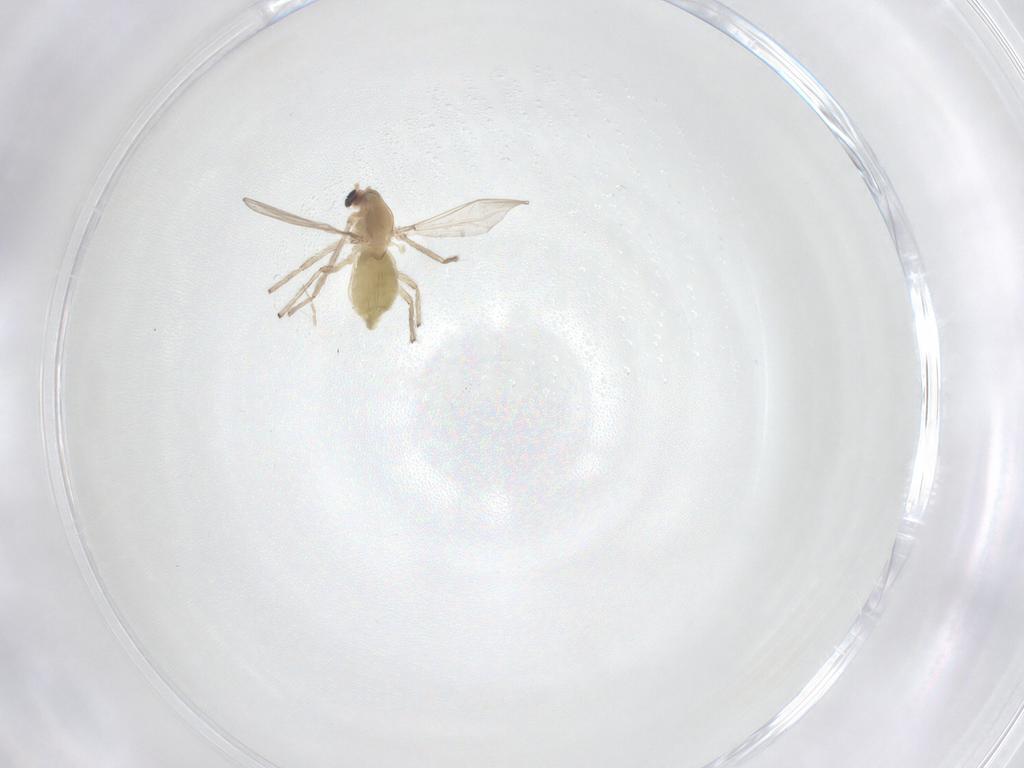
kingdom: Animalia
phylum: Arthropoda
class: Insecta
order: Diptera
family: Chironomidae
